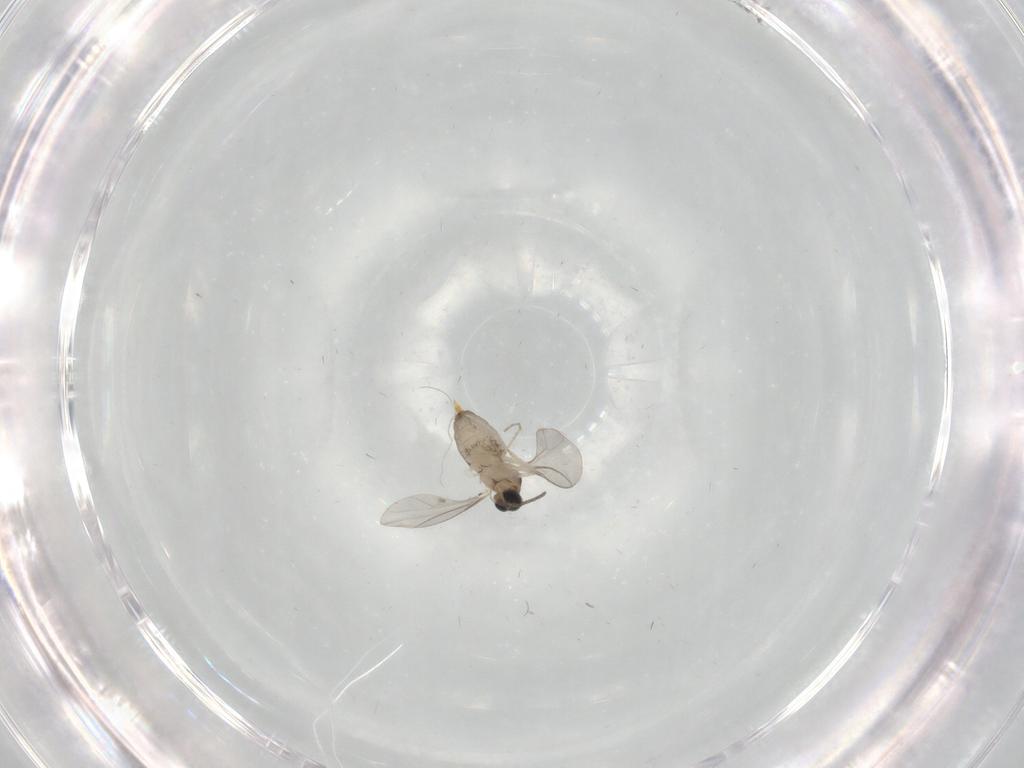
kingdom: Animalia
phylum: Arthropoda
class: Insecta
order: Diptera
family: Cecidomyiidae
